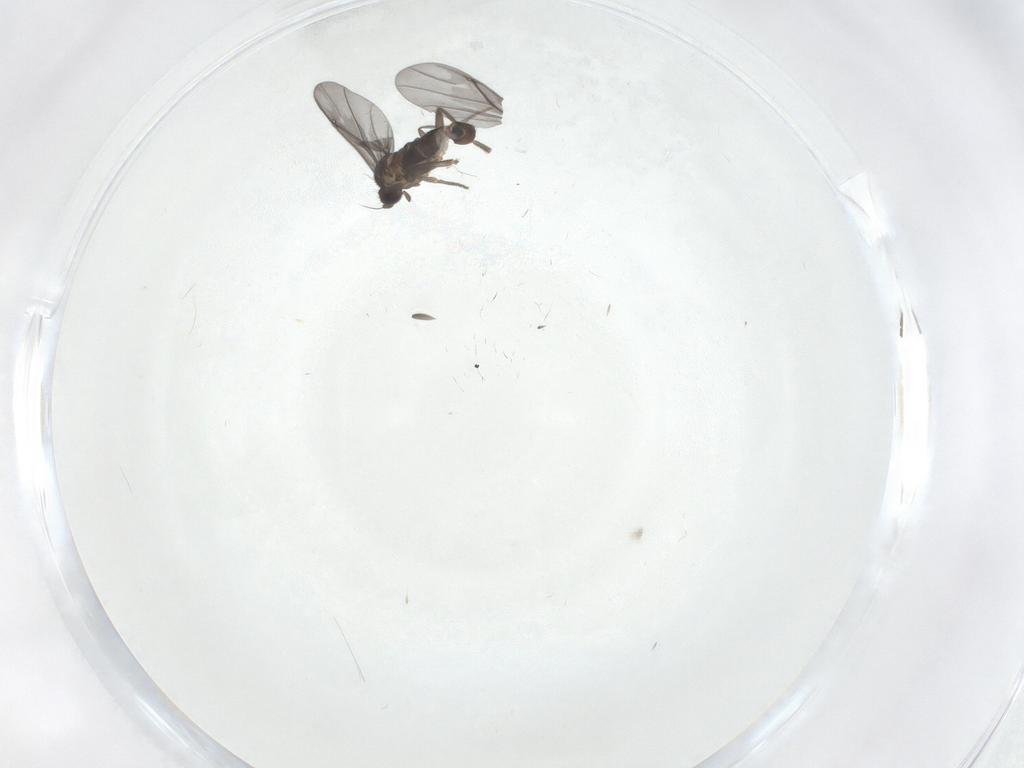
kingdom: Animalia
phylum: Arthropoda
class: Insecta
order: Diptera
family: Phoridae
